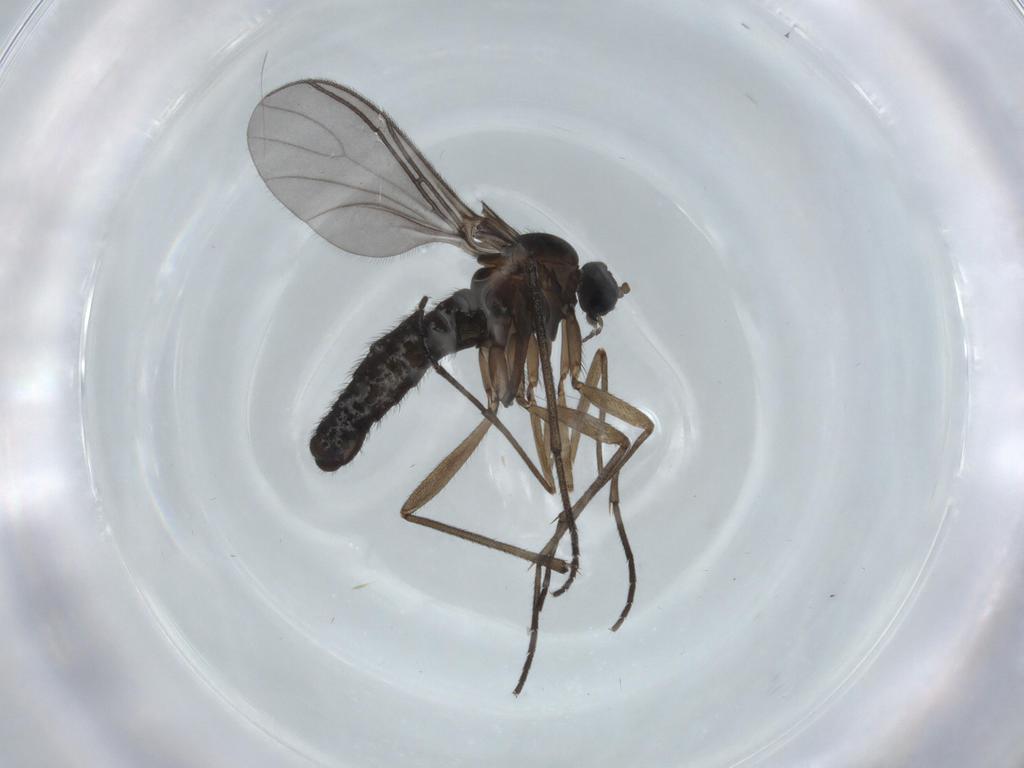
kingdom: Animalia
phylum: Arthropoda
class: Insecta
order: Diptera
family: Sciaridae
